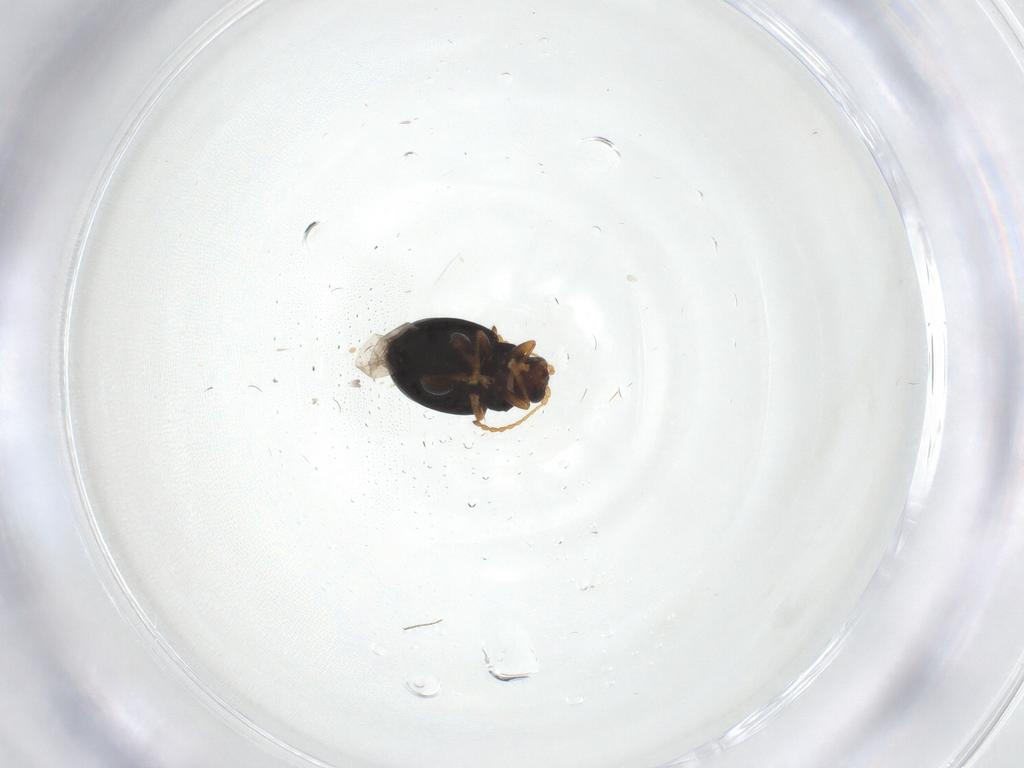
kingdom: Animalia
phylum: Arthropoda
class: Insecta
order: Coleoptera
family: Chrysomelidae
